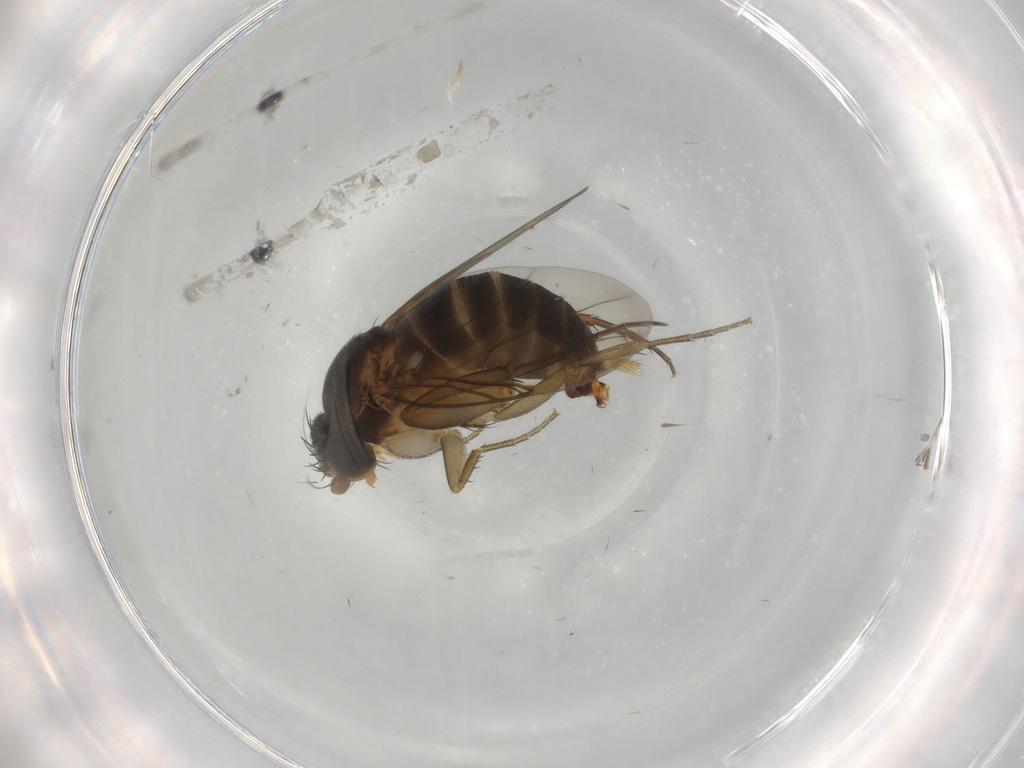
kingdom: Animalia
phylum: Arthropoda
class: Insecta
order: Diptera
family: Phoridae
